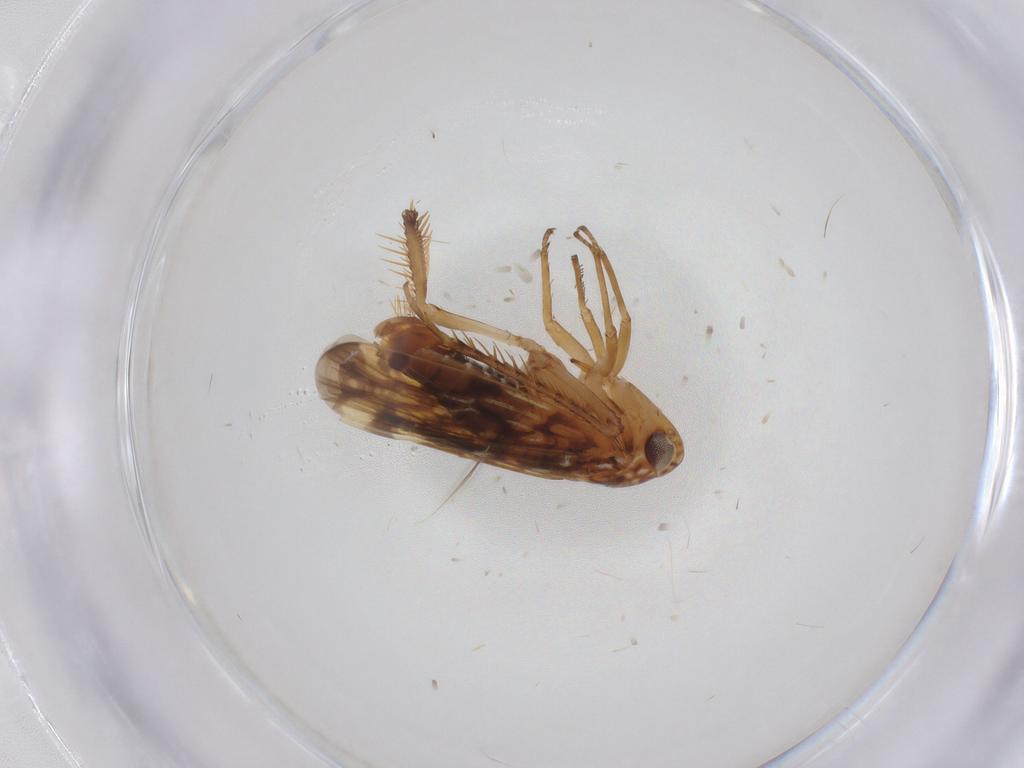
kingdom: Animalia
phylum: Arthropoda
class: Insecta
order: Hemiptera
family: Cicadellidae
